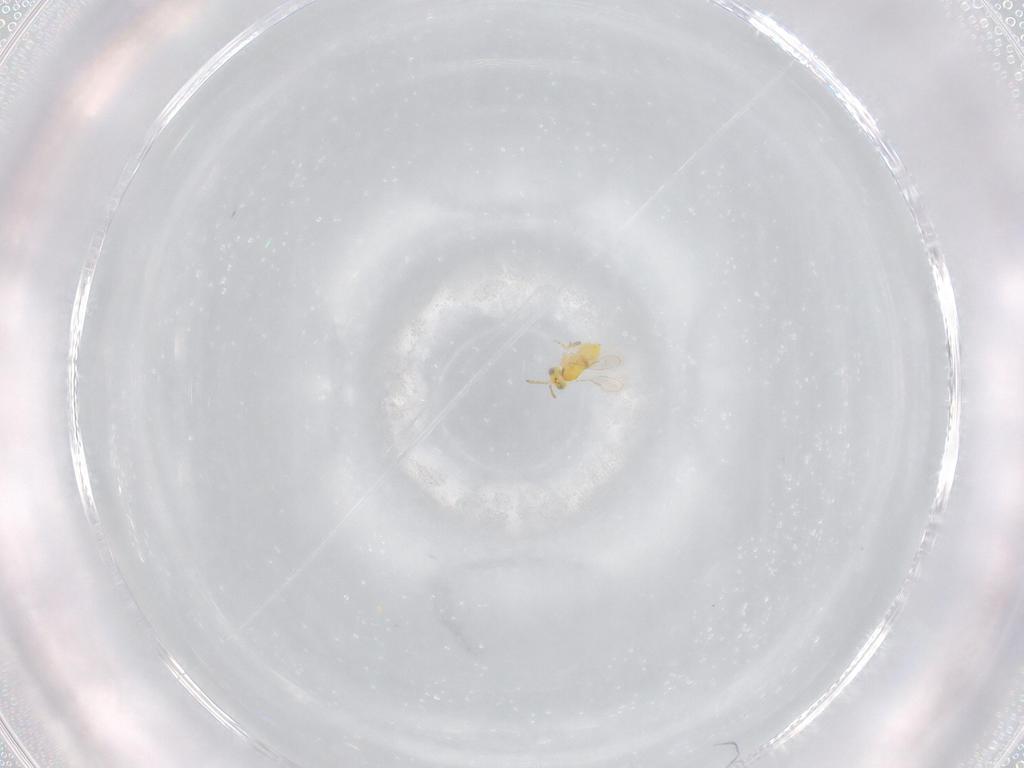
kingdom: Animalia
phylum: Arthropoda
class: Insecta
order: Hymenoptera
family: Aphelinidae
